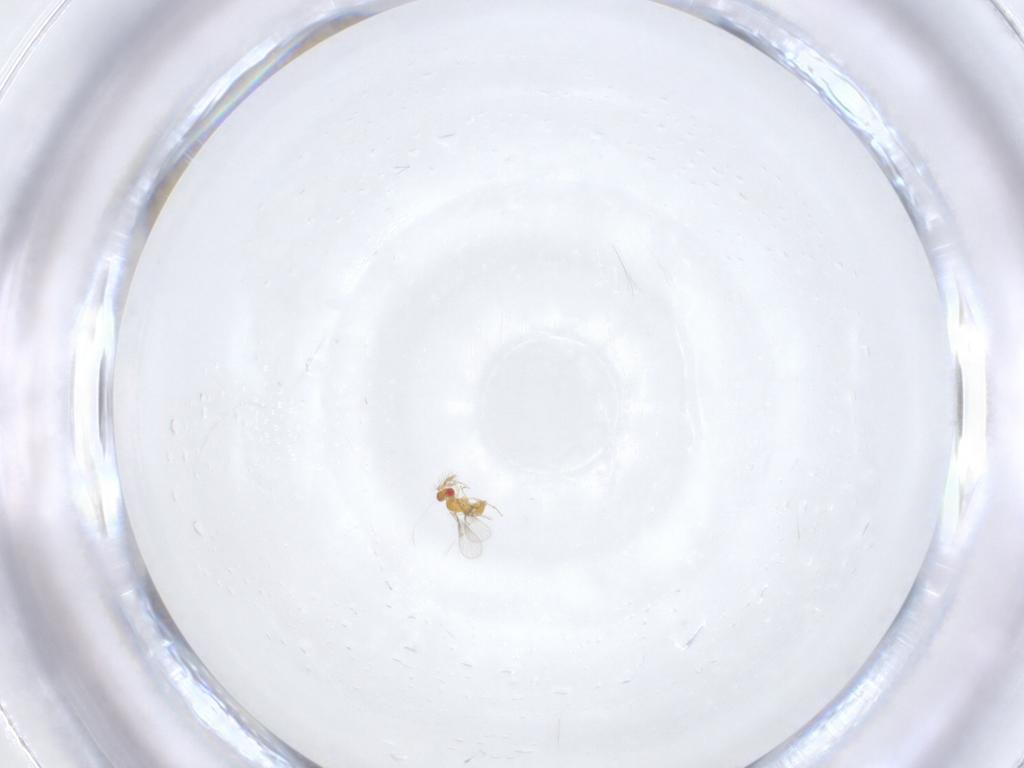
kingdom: Animalia
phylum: Arthropoda
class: Insecta
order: Hymenoptera
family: Trichogrammatidae
